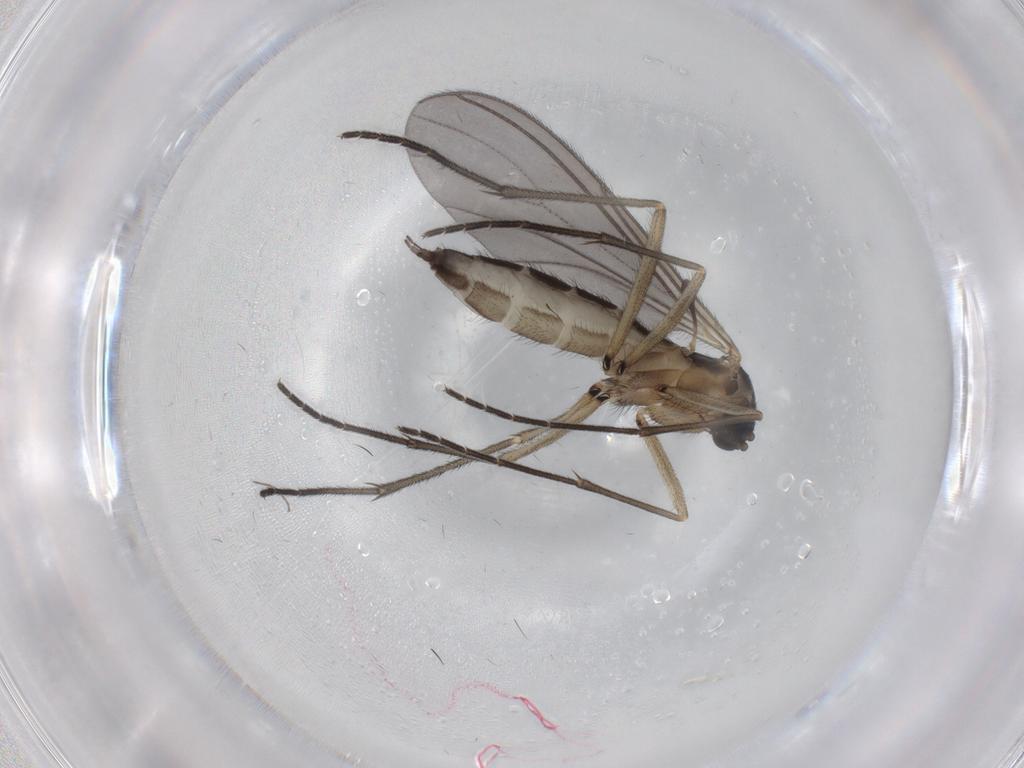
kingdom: Animalia
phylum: Arthropoda
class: Insecta
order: Diptera
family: Sciaridae
